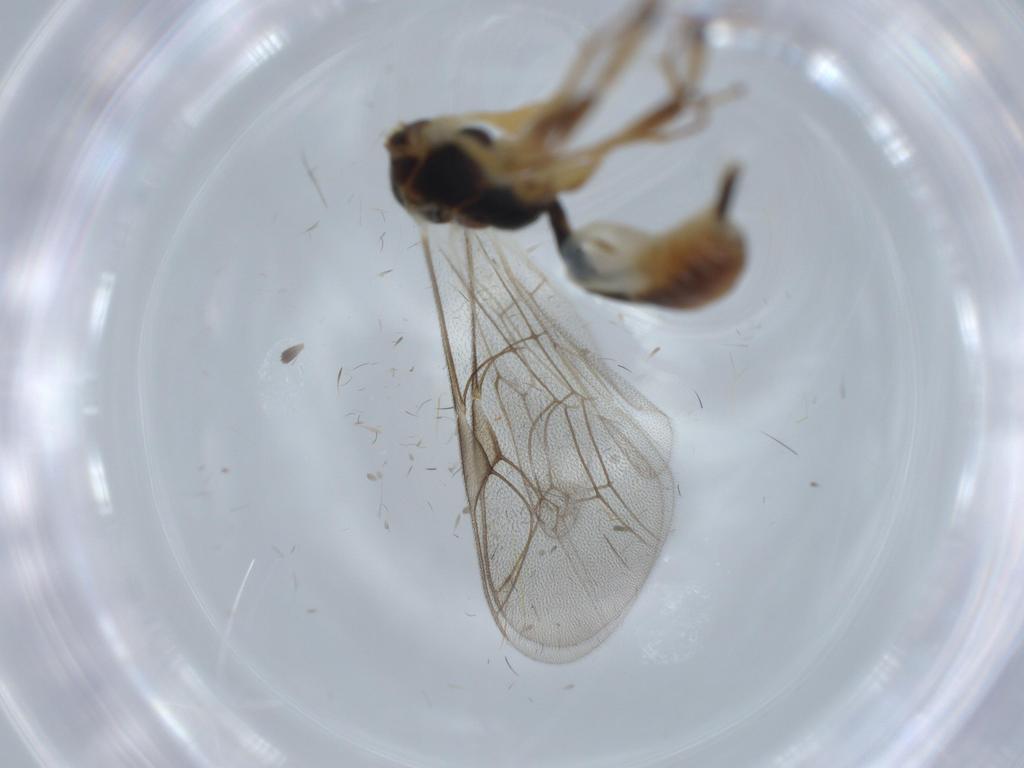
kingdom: Animalia
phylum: Arthropoda
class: Insecta
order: Hymenoptera
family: Ichneumonidae
